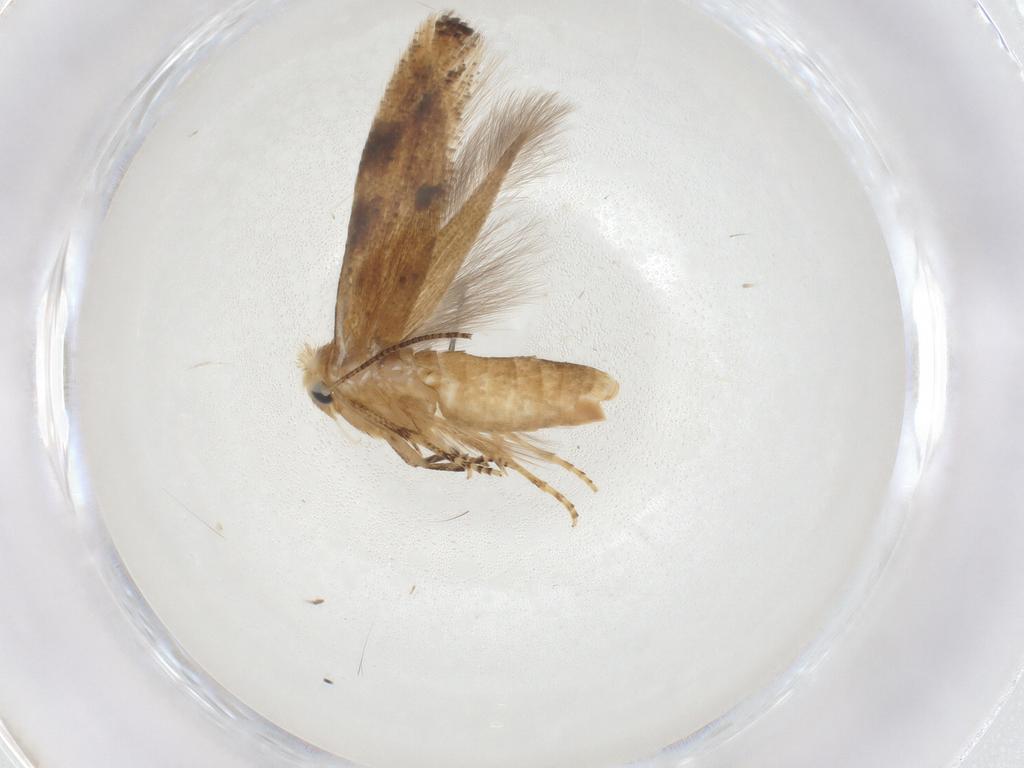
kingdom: Animalia
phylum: Arthropoda
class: Insecta
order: Lepidoptera
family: Bucculatricidae
